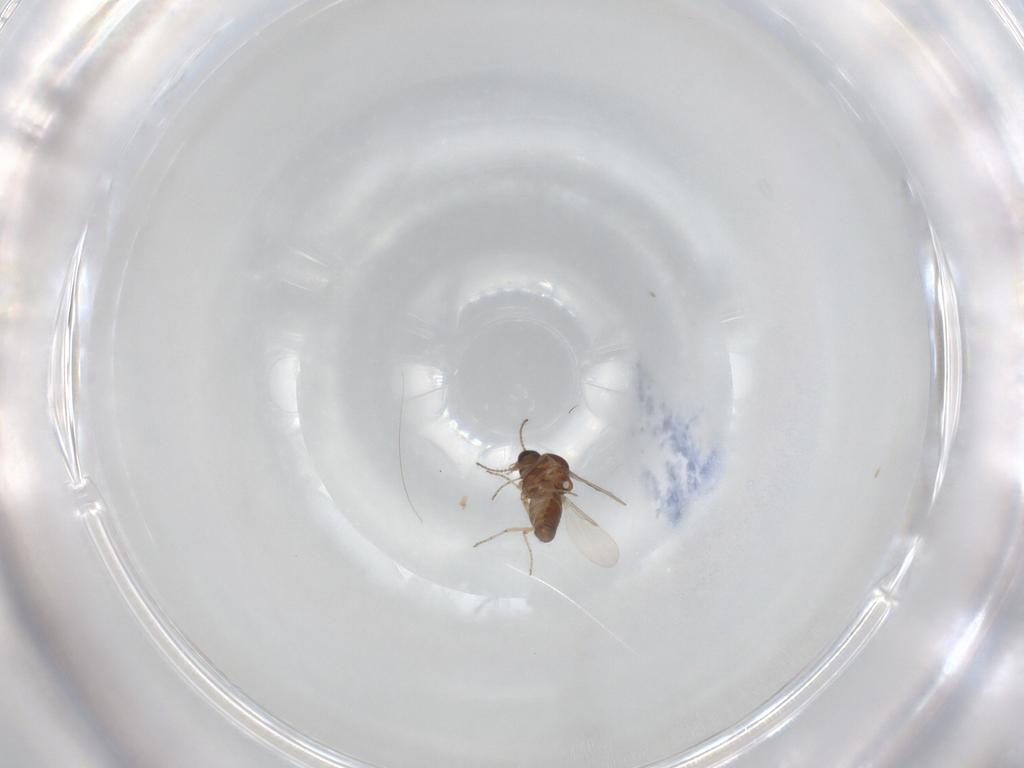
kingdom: Animalia
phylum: Arthropoda
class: Insecta
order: Diptera
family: Ceratopogonidae
